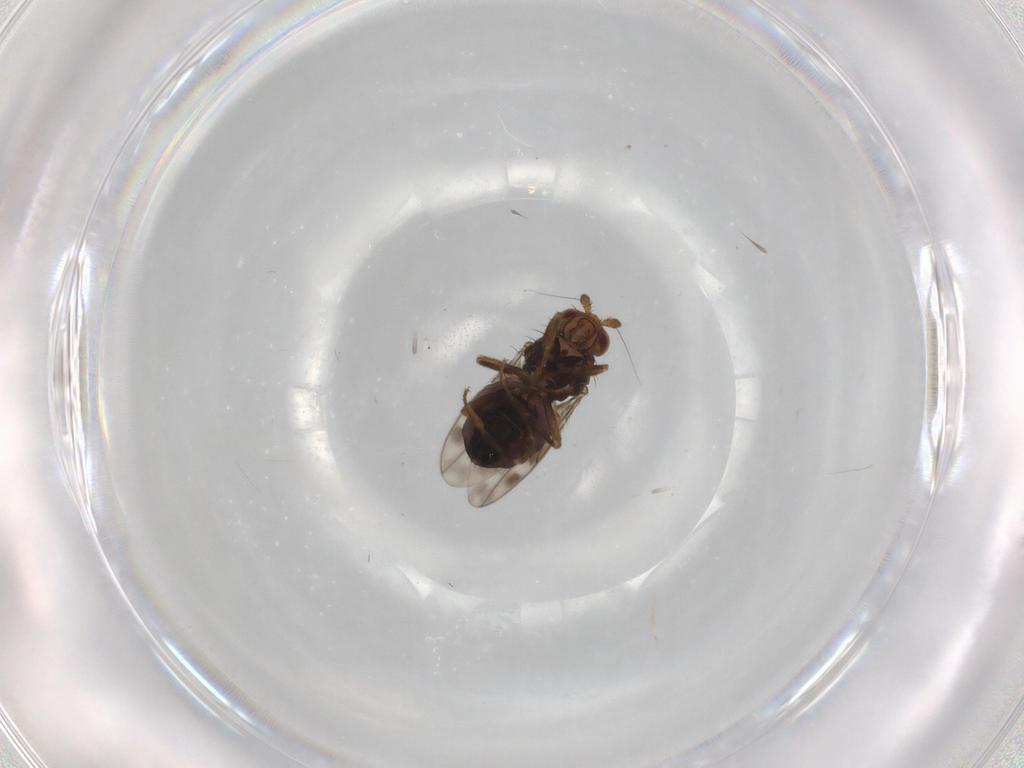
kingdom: Animalia
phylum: Arthropoda
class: Insecta
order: Diptera
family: Sphaeroceridae
